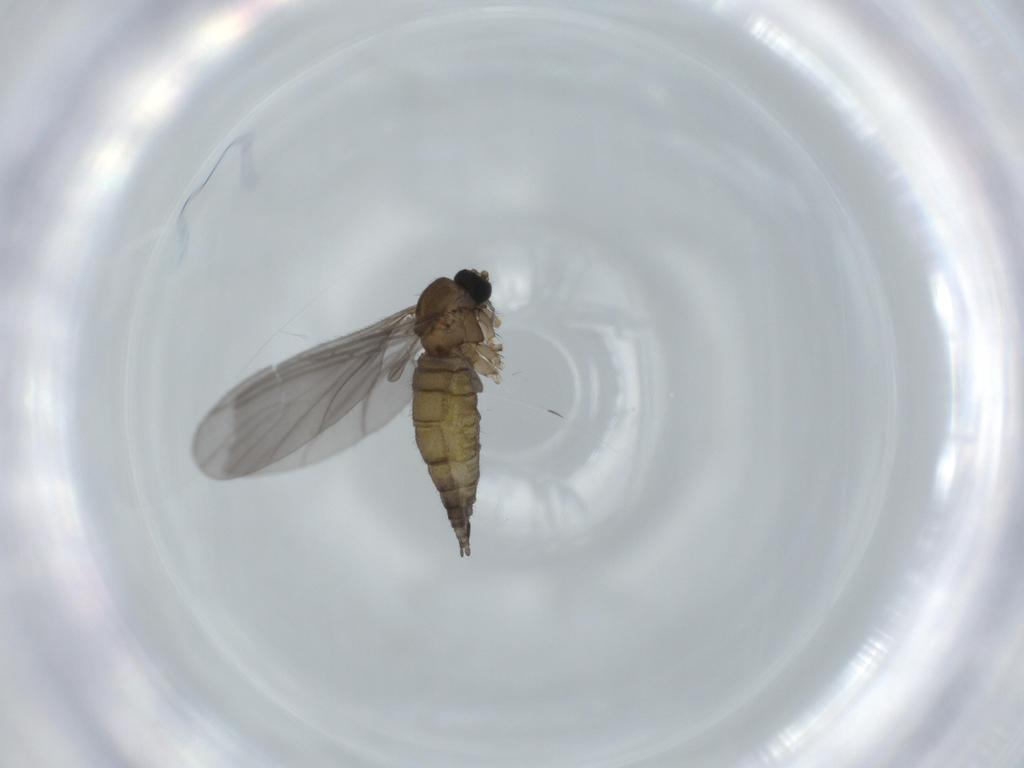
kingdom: Animalia
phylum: Arthropoda
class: Insecta
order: Diptera
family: Sciaridae
